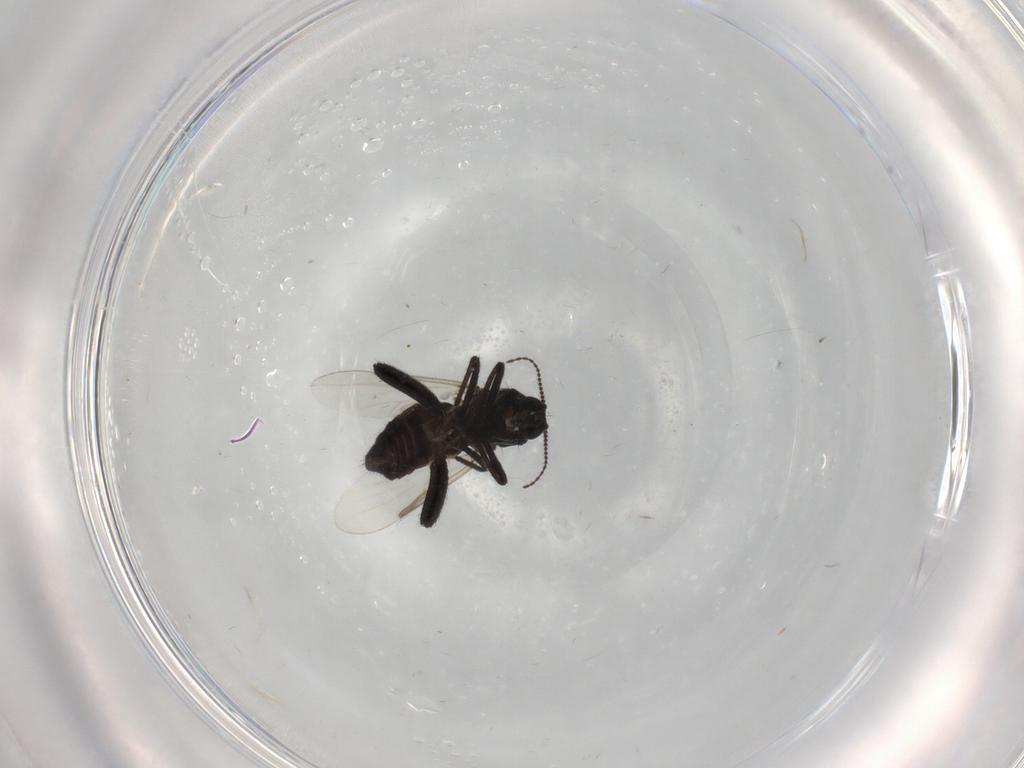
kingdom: Animalia
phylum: Arthropoda
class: Insecta
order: Diptera
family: Ceratopogonidae
